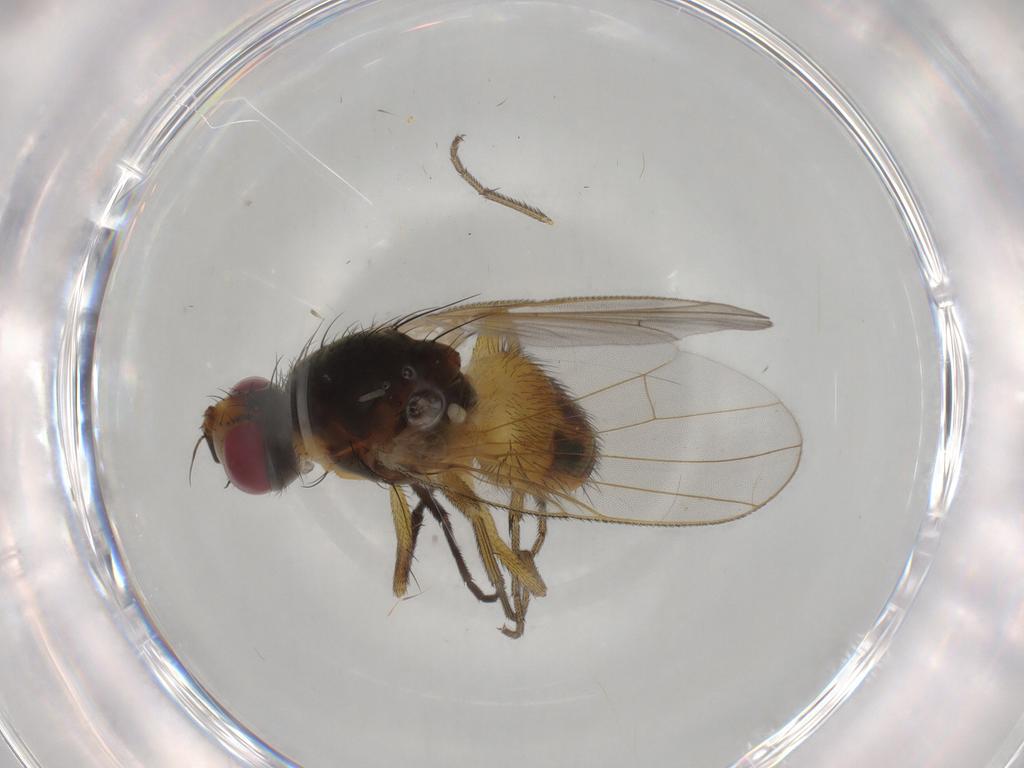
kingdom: Animalia
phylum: Arthropoda
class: Insecta
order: Diptera
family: Muscidae
